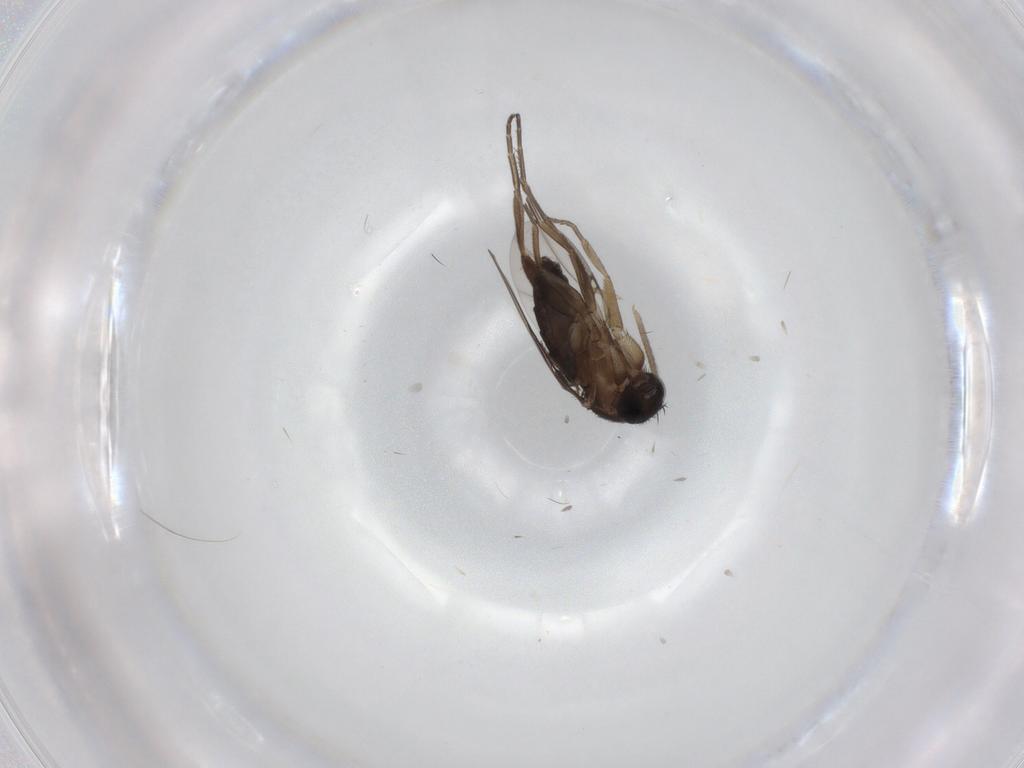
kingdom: Animalia
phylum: Arthropoda
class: Insecta
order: Diptera
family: Phoridae
